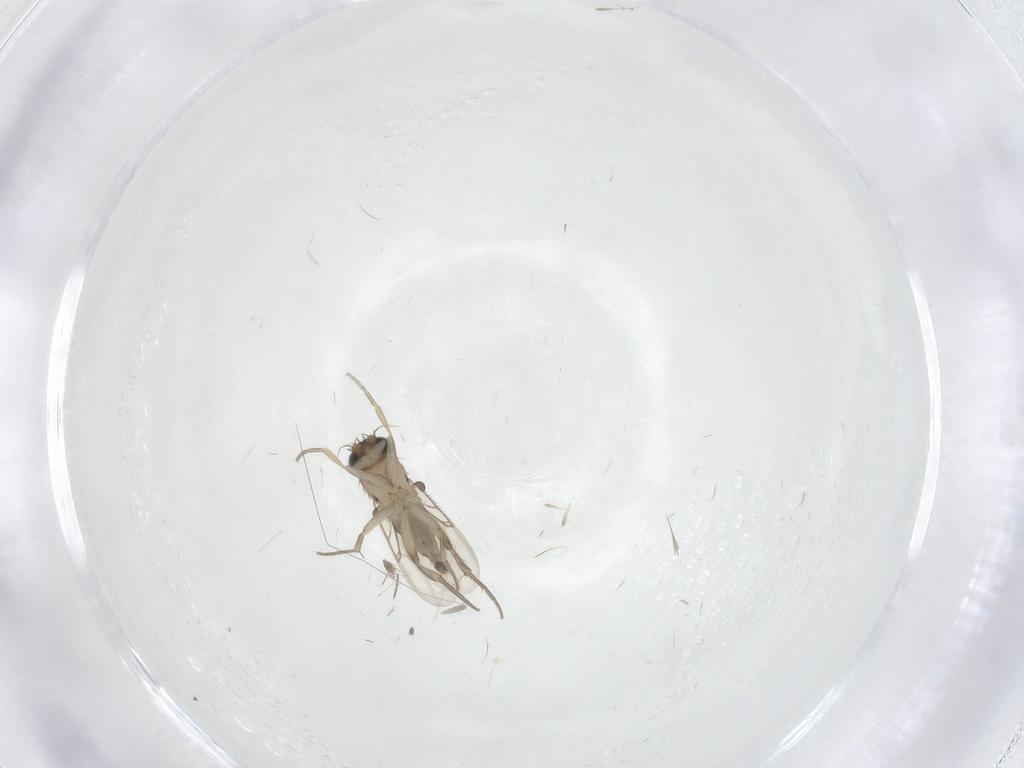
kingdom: Animalia
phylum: Arthropoda
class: Insecta
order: Diptera
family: Phoridae
